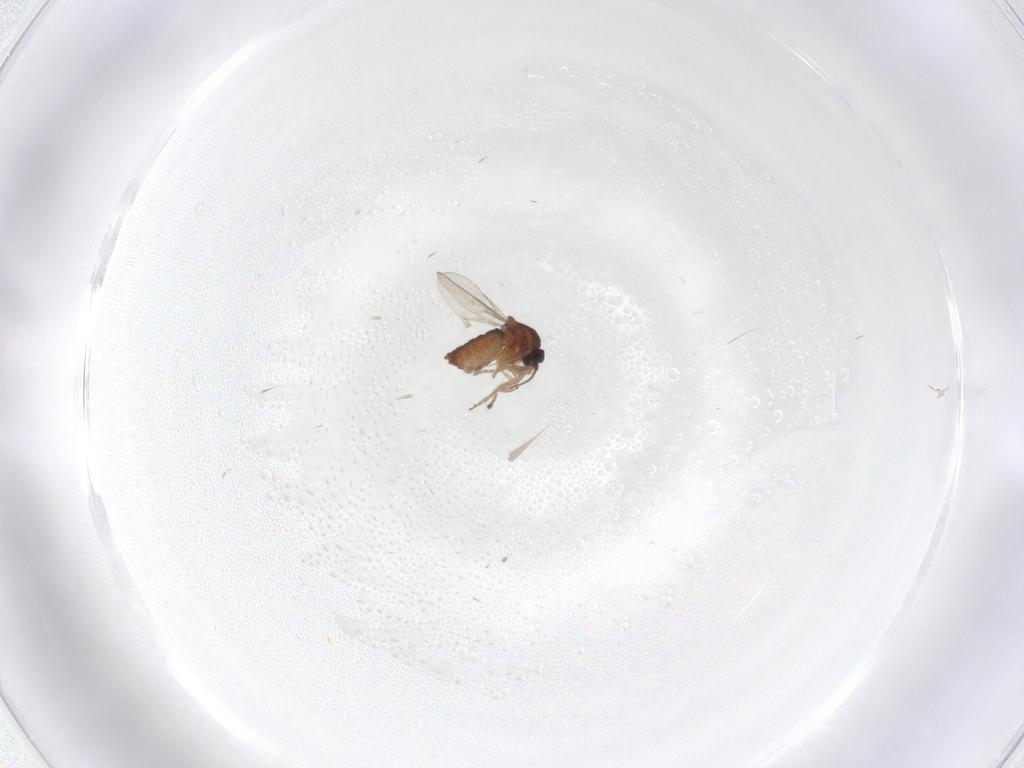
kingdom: Animalia
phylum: Arthropoda
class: Insecta
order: Diptera
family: Ceratopogonidae
